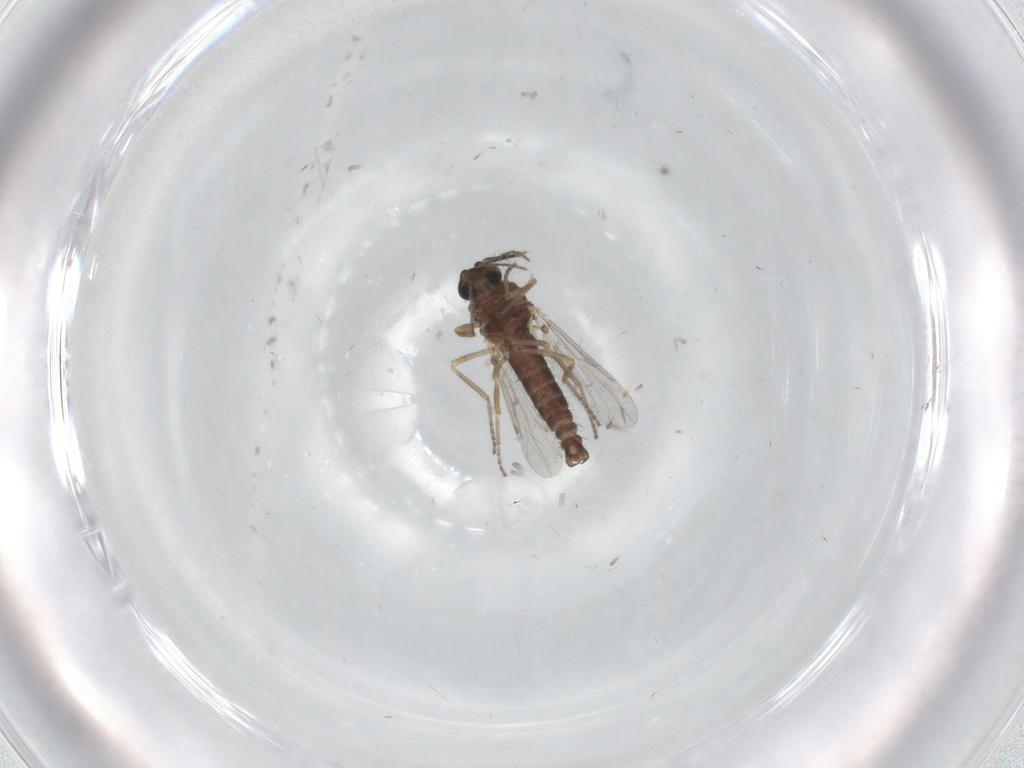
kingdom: Animalia
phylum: Arthropoda
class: Insecta
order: Diptera
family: Ceratopogonidae
